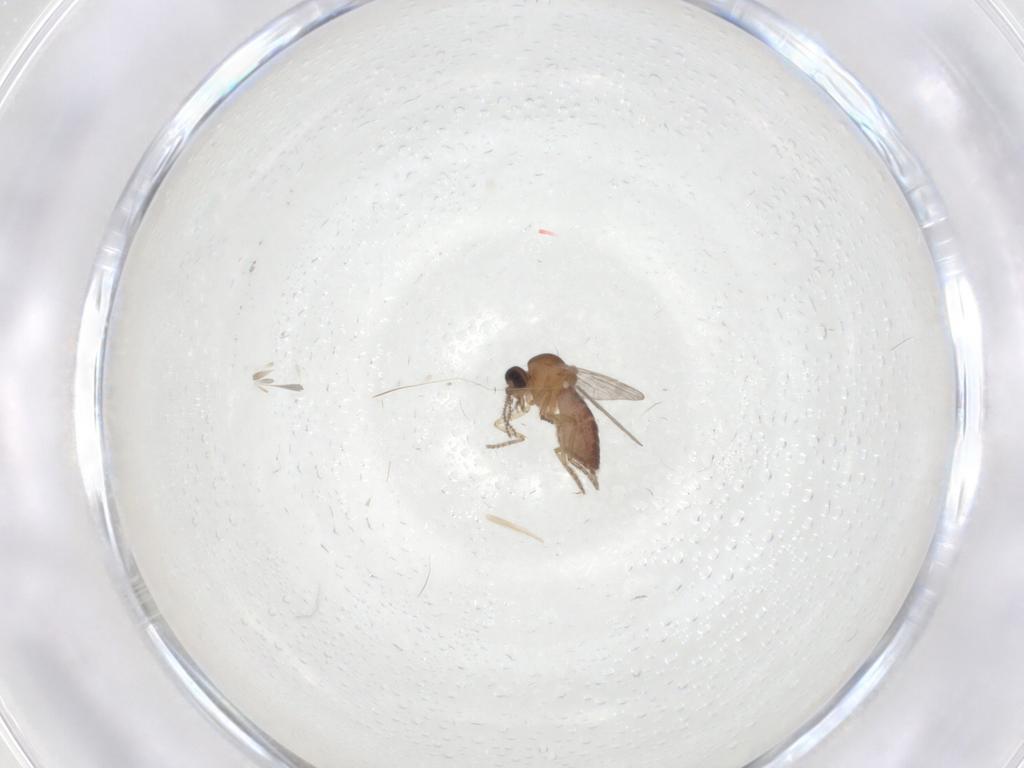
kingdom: Animalia
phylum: Arthropoda
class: Insecta
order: Diptera
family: Ceratopogonidae
